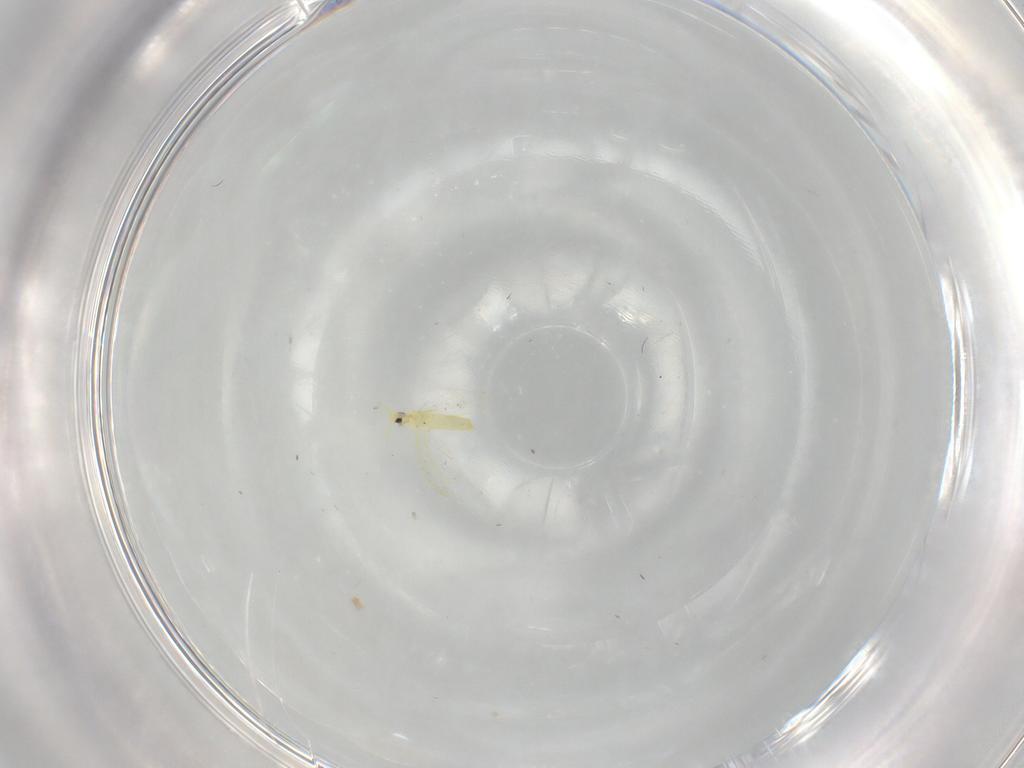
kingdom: Animalia
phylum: Arthropoda
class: Insecta
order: Hemiptera
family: Aleyrodidae
